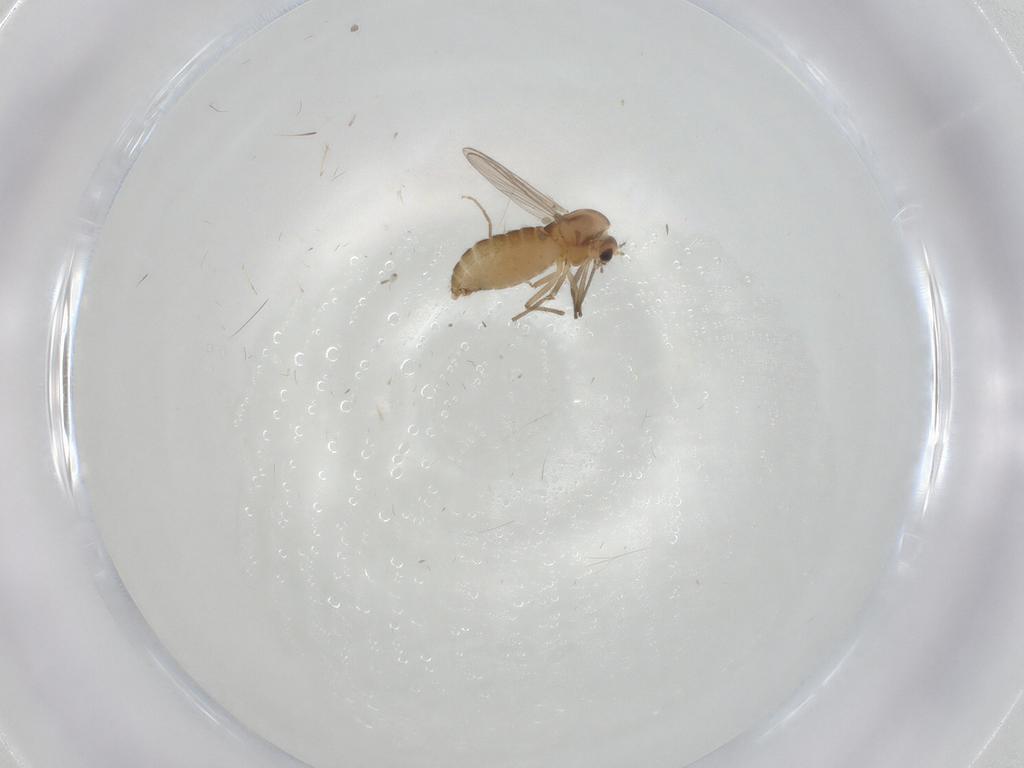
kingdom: Animalia
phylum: Arthropoda
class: Insecta
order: Diptera
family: Chironomidae
